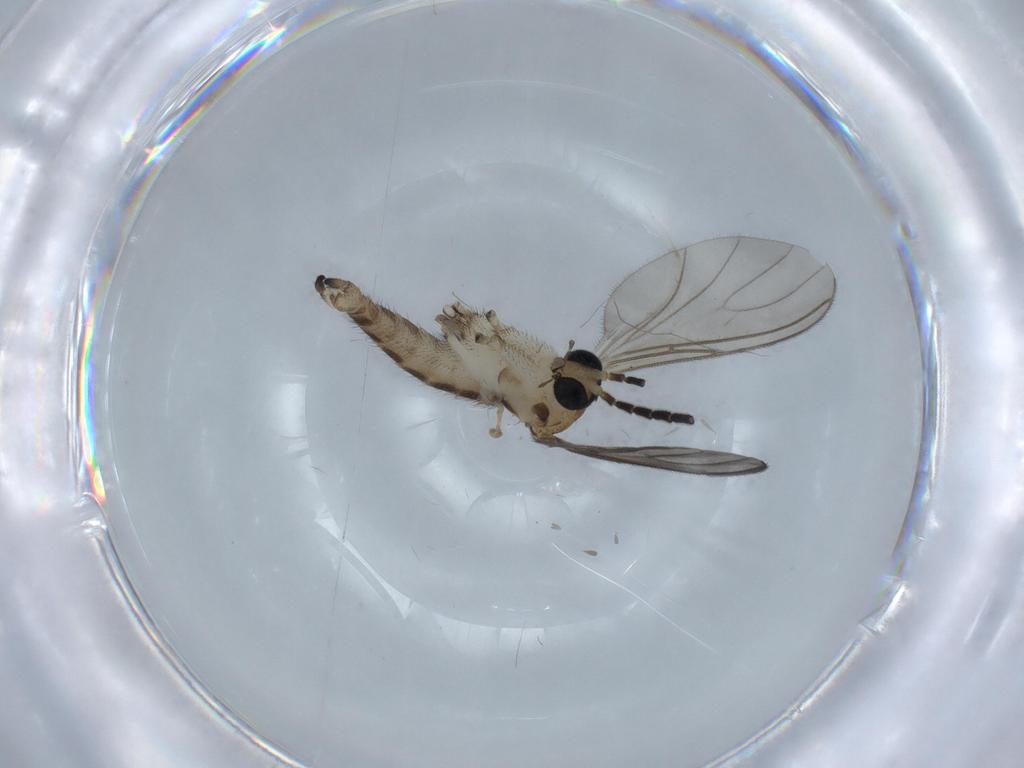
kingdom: Animalia
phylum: Arthropoda
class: Insecta
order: Diptera
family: Sciaridae
